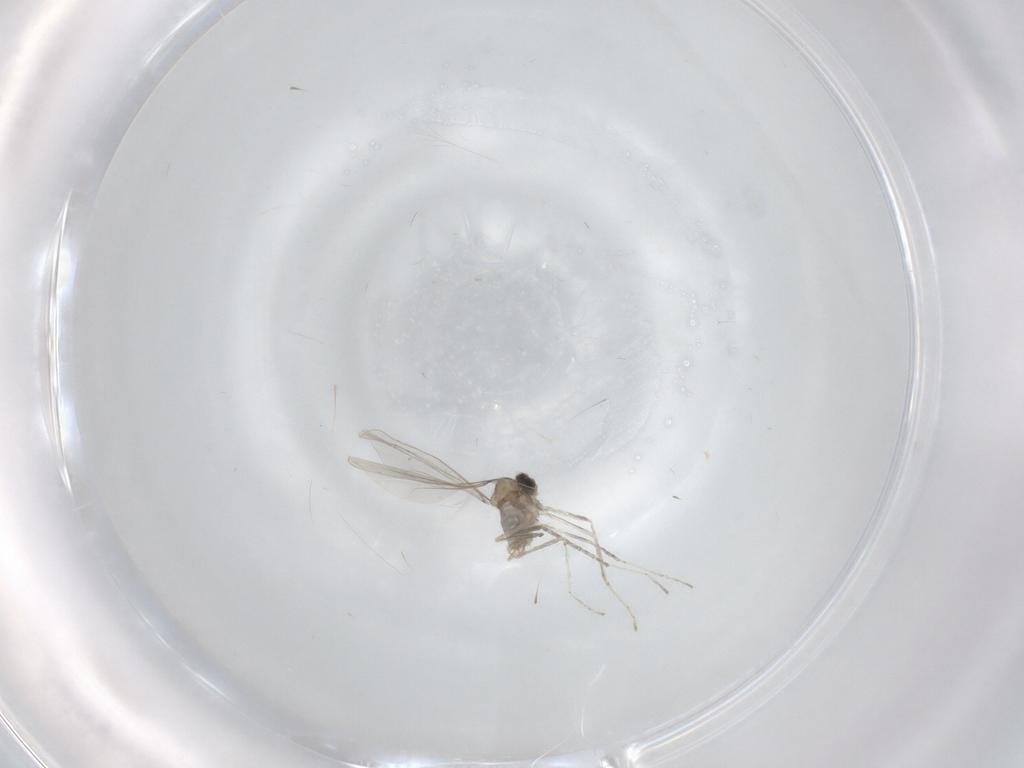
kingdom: Animalia
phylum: Arthropoda
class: Insecta
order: Diptera
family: Cecidomyiidae
